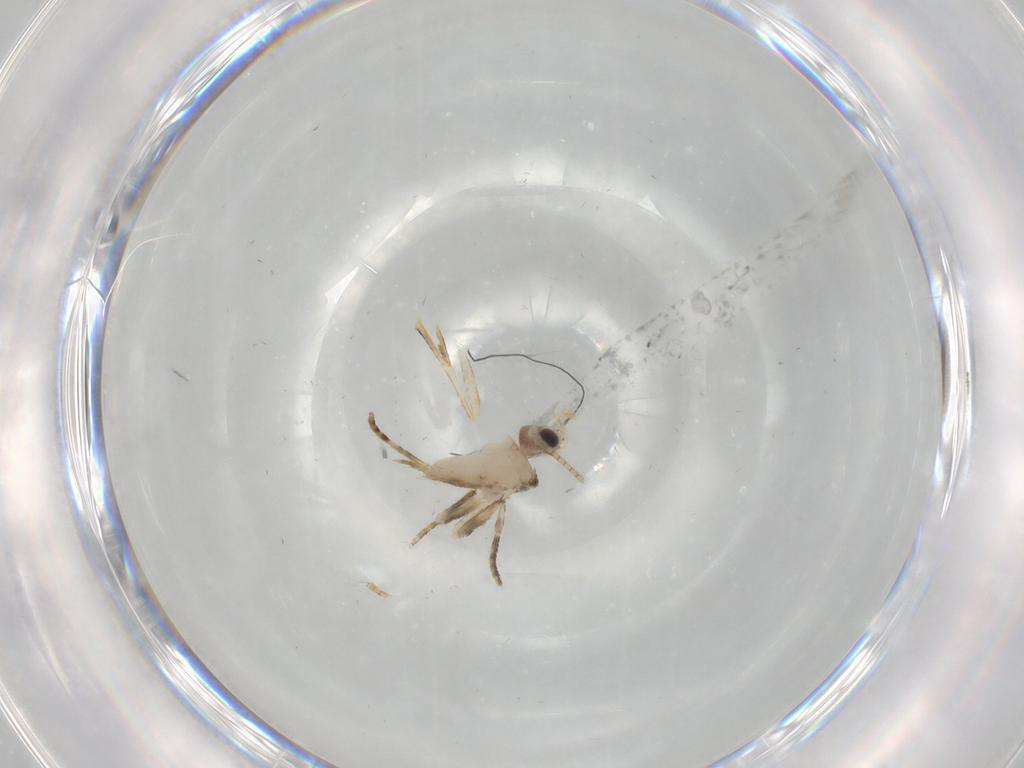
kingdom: Animalia
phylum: Arthropoda
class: Insecta
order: Lepidoptera
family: Tineidae
